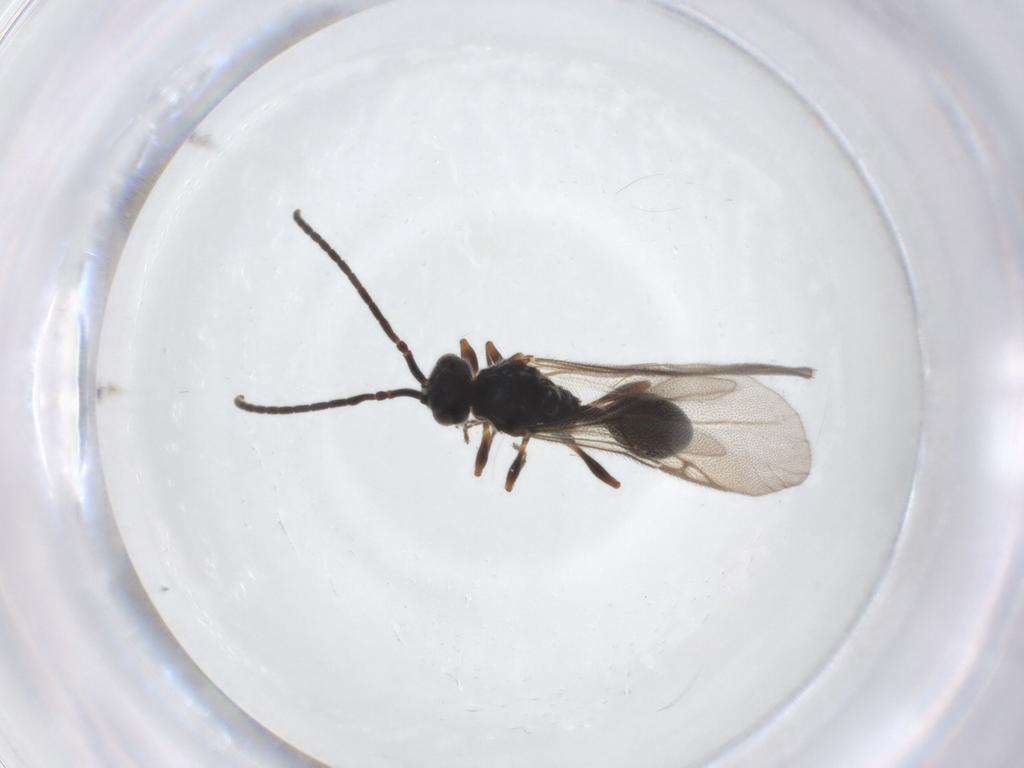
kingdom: Animalia
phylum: Arthropoda
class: Insecta
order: Hymenoptera
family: Diapriidae
